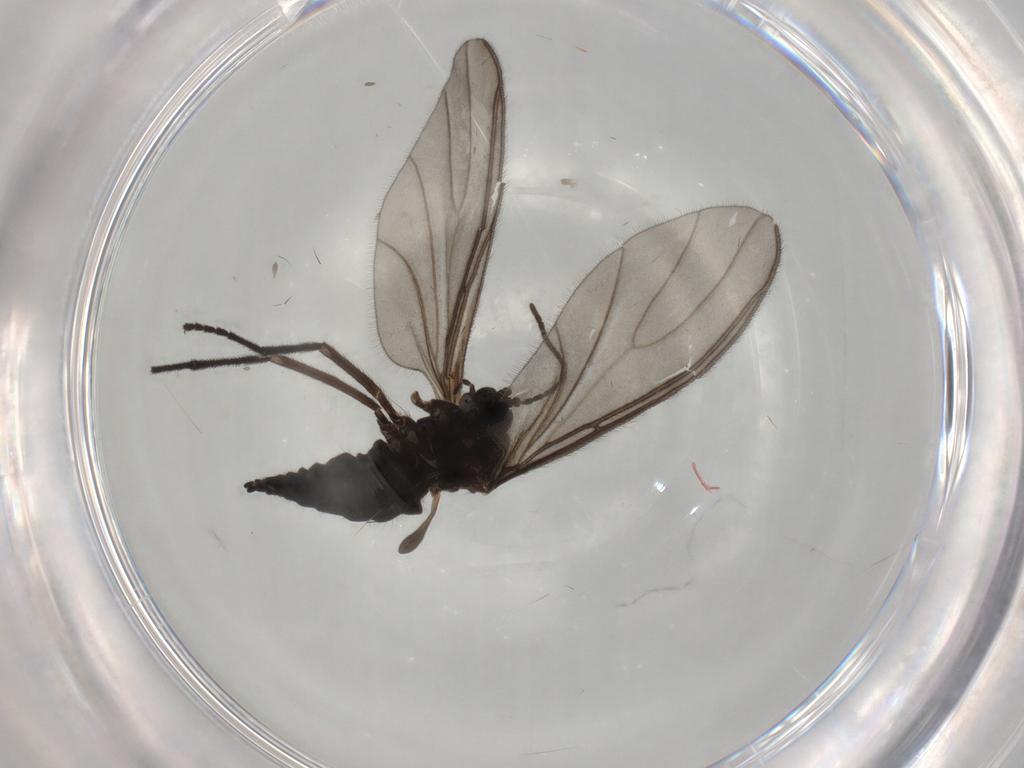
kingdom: Animalia
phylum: Arthropoda
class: Insecta
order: Diptera
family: Sciaridae
